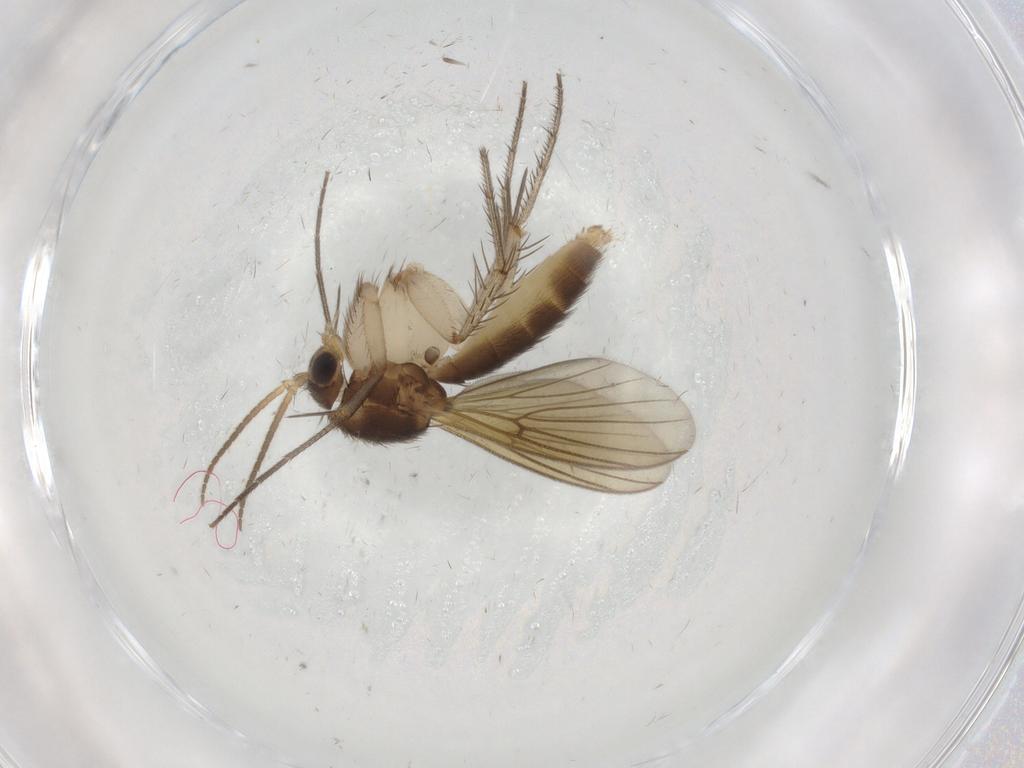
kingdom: Animalia
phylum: Arthropoda
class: Insecta
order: Diptera
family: Mycetophilidae
